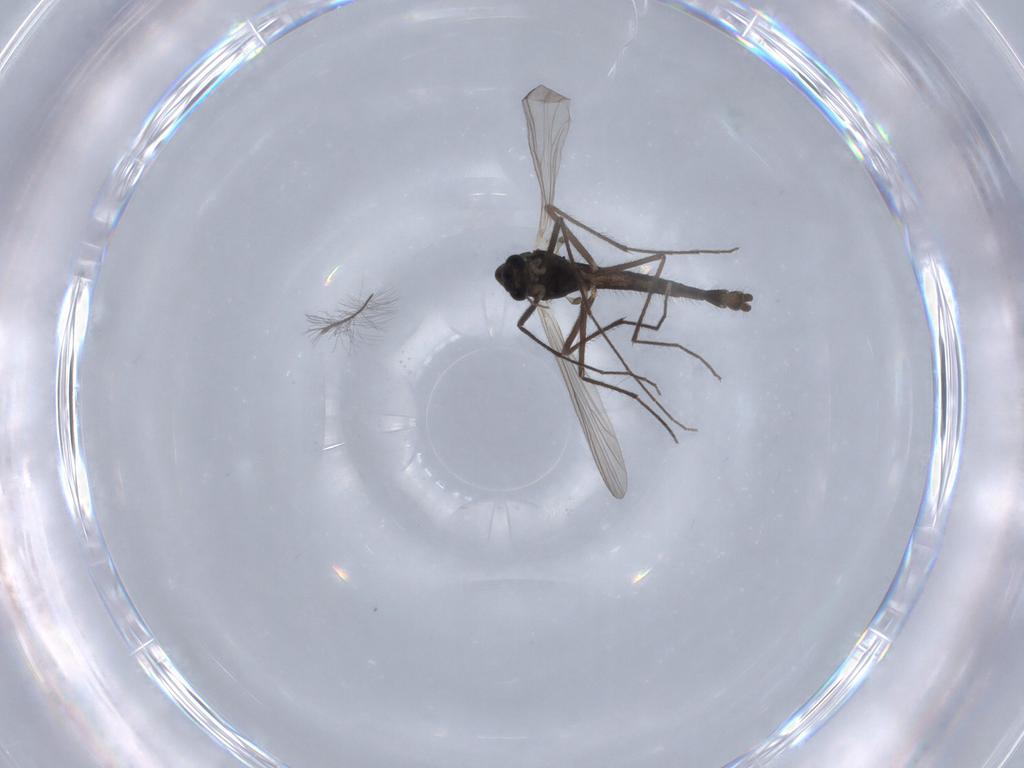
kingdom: Animalia
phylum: Arthropoda
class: Insecta
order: Diptera
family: Chironomidae
